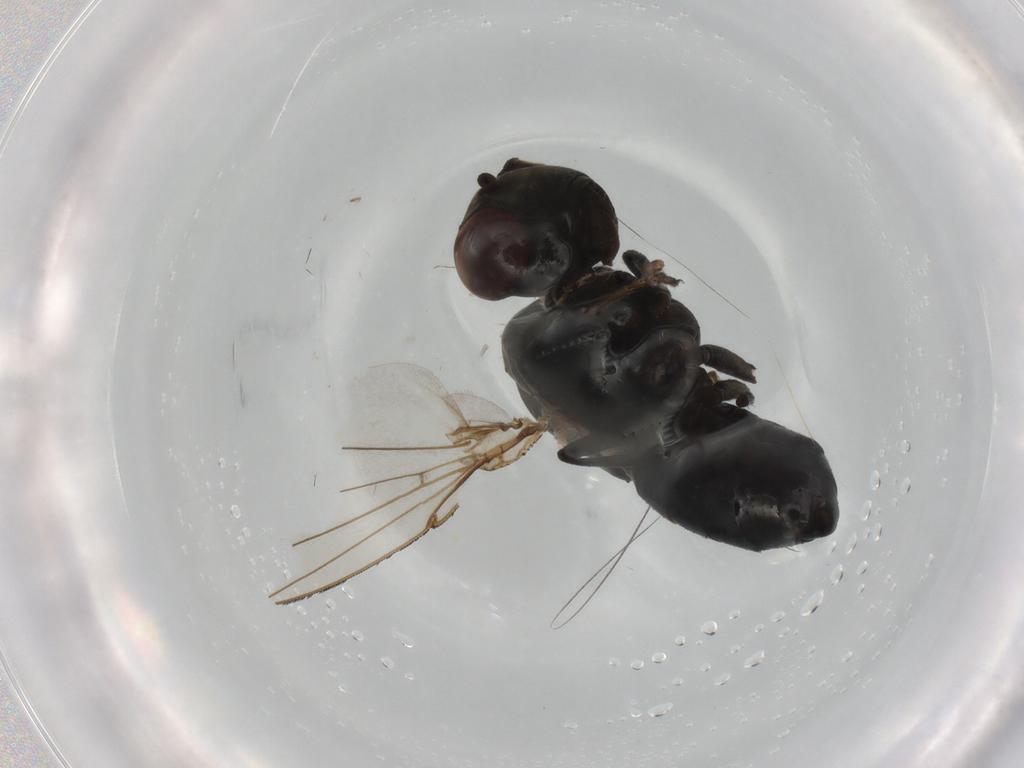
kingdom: Animalia
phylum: Arthropoda
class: Insecta
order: Diptera
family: Ephydridae
